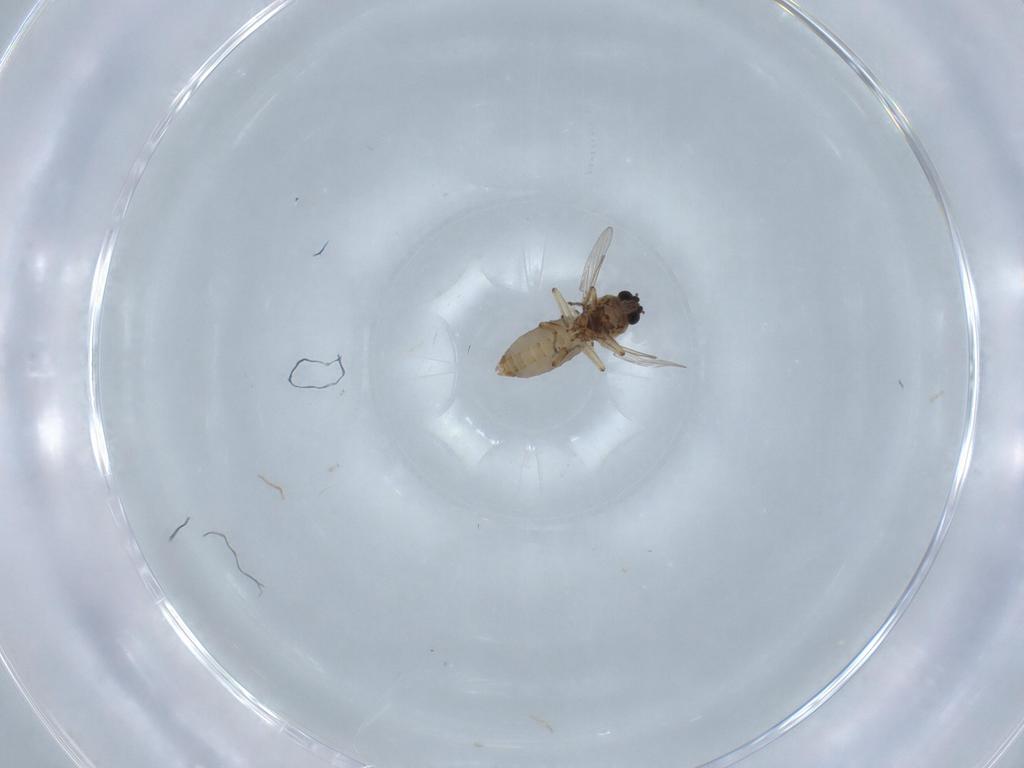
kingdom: Animalia
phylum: Arthropoda
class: Insecta
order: Diptera
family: Ceratopogonidae
